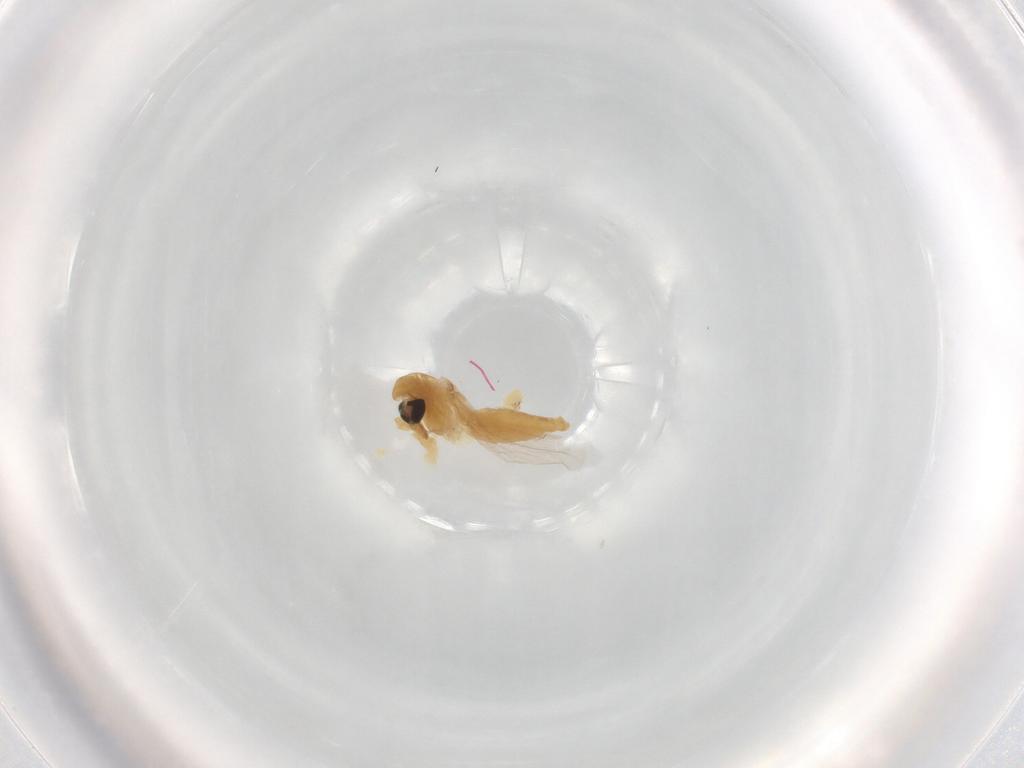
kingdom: Animalia
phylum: Arthropoda
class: Insecta
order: Diptera
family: Chironomidae
